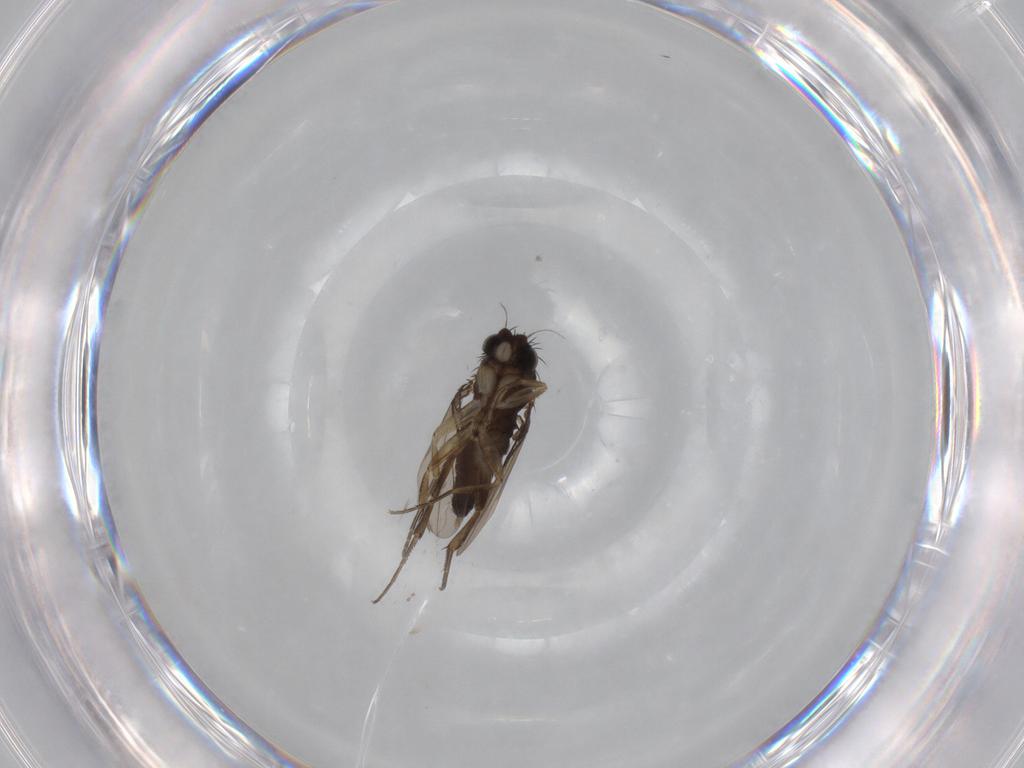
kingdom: Animalia
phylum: Arthropoda
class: Insecta
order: Diptera
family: Phoridae
